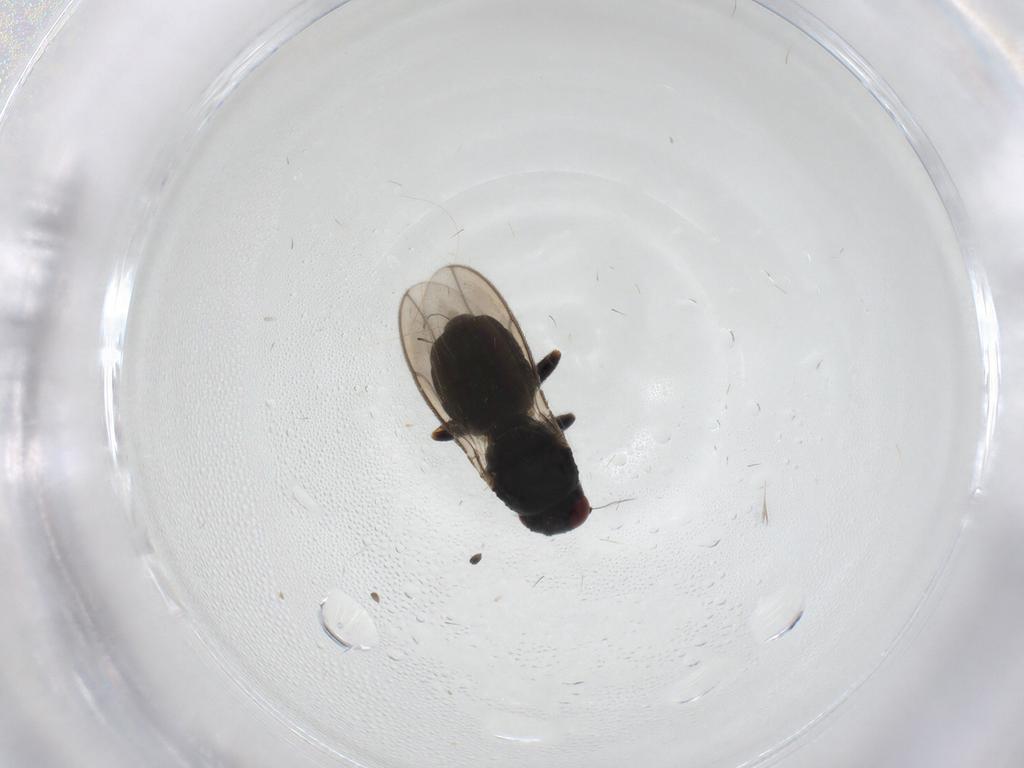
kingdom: Animalia
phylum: Arthropoda
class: Insecta
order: Diptera
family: Sphaeroceridae
